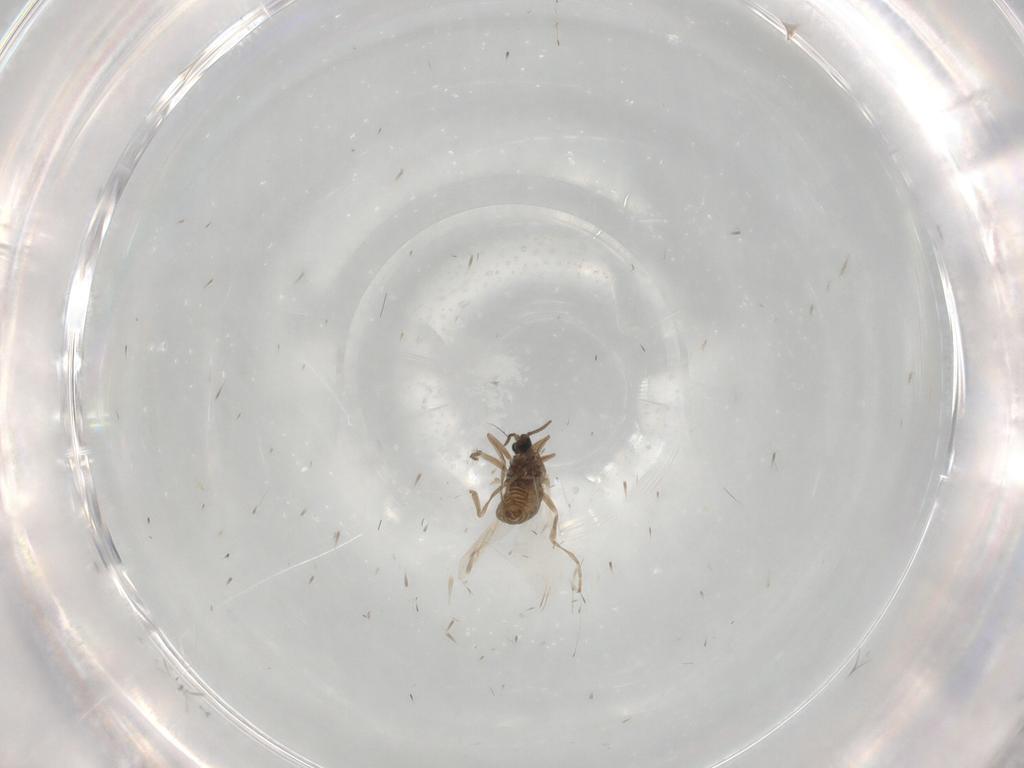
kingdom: Animalia
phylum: Arthropoda
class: Insecta
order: Diptera
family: Cecidomyiidae
